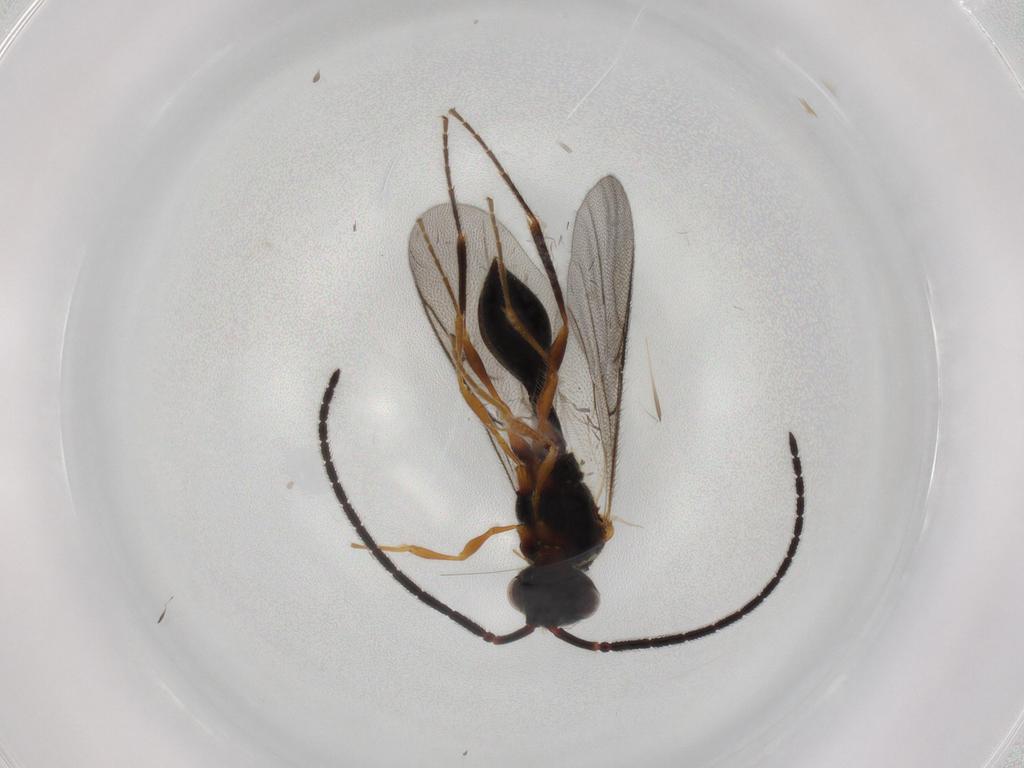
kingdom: Animalia
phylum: Arthropoda
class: Insecta
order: Hymenoptera
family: Diapriidae
